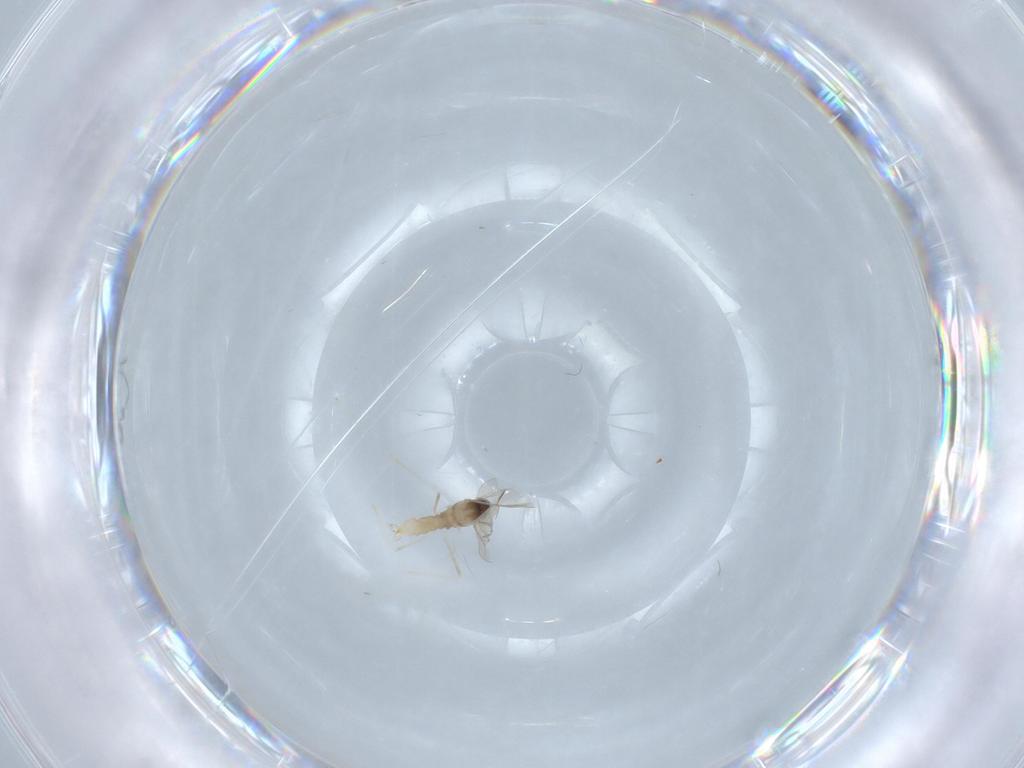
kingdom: Animalia
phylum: Arthropoda
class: Insecta
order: Diptera
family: Cecidomyiidae
